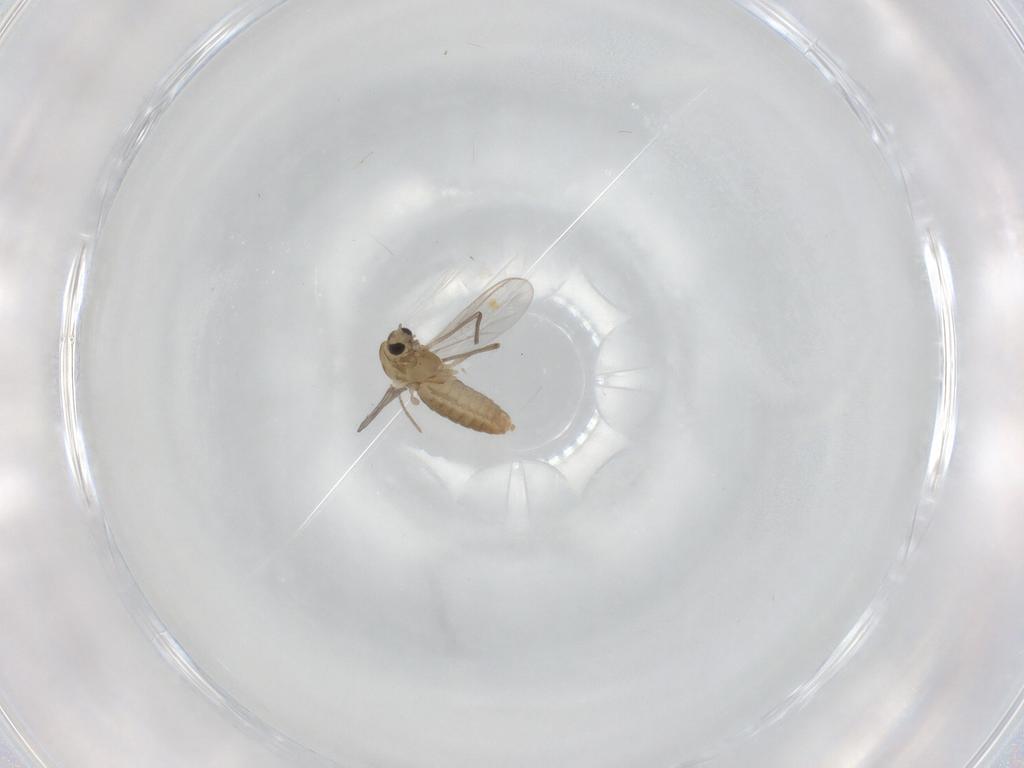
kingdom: Animalia
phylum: Arthropoda
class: Insecta
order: Diptera
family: Chironomidae
